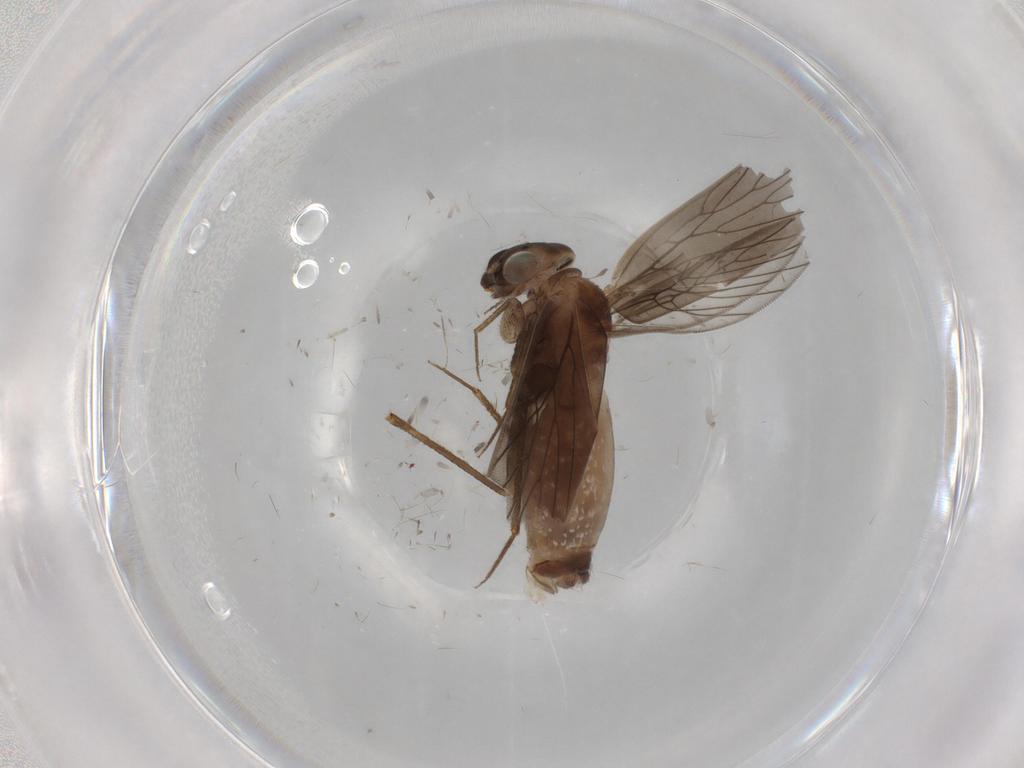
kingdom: Animalia
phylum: Arthropoda
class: Insecta
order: Psocodea
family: Lepidopsocidae
